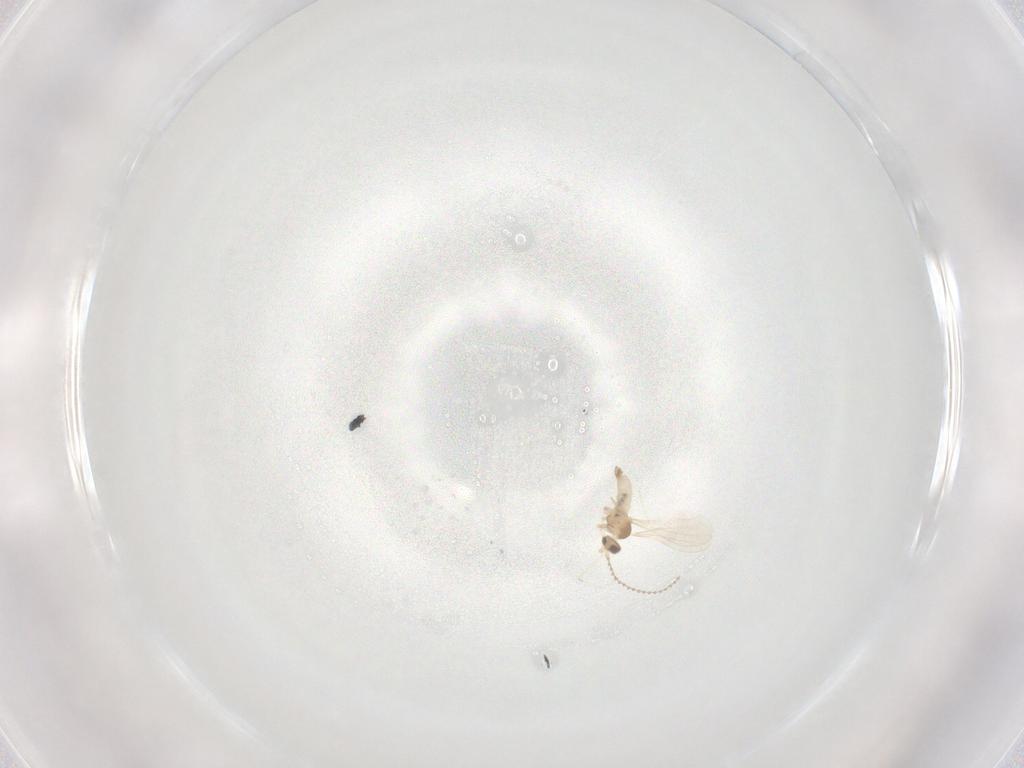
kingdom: Animalia
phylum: Arthropoda
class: Insecta
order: Diptera
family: Cecidomyiidae
